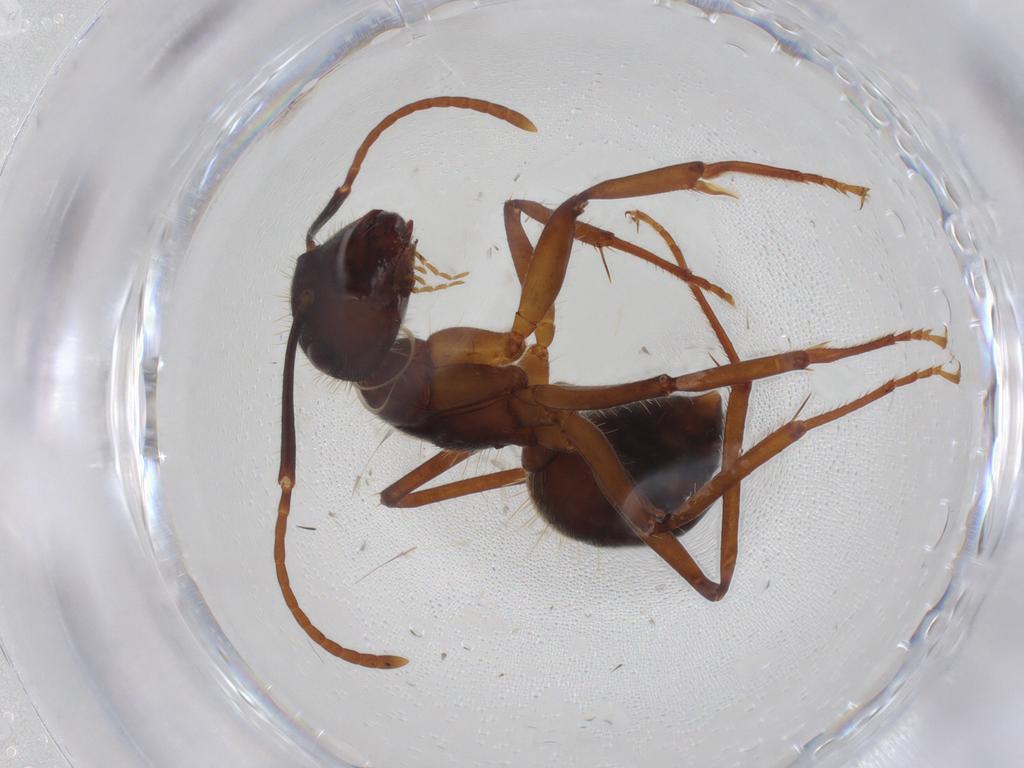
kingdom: Animalia
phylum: Arthropoda
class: Insecta
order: Hymenoptera
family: Formicidae
